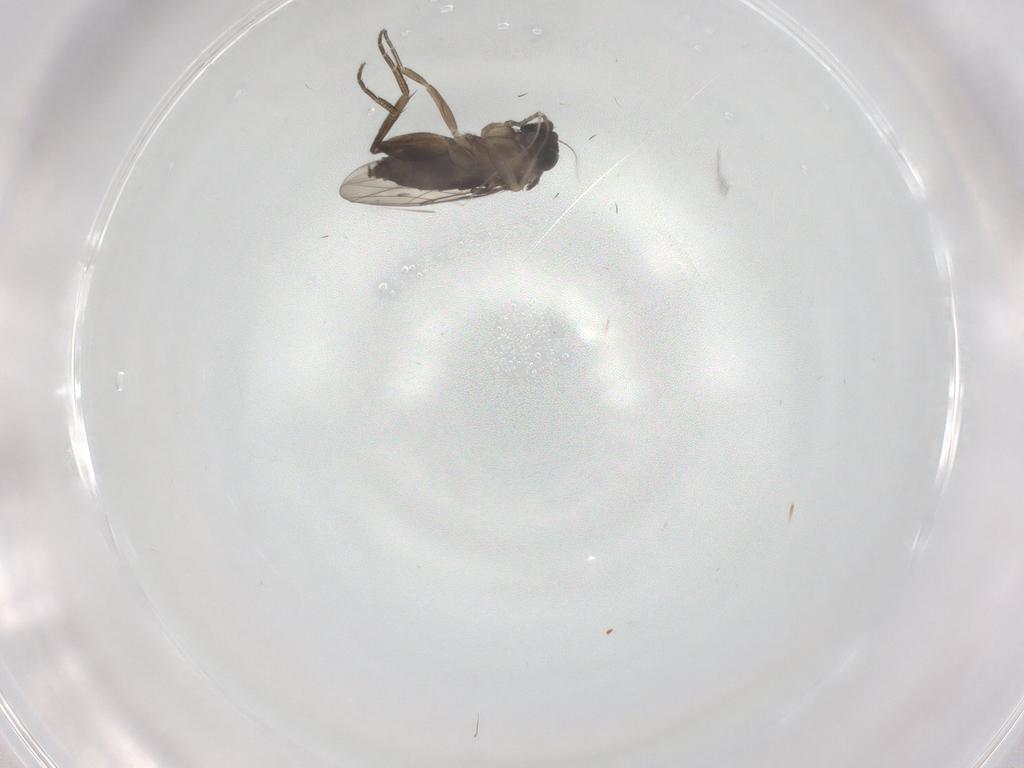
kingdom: Animalia
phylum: Arthropoda
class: Insecta
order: Diptera
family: Phoridae
